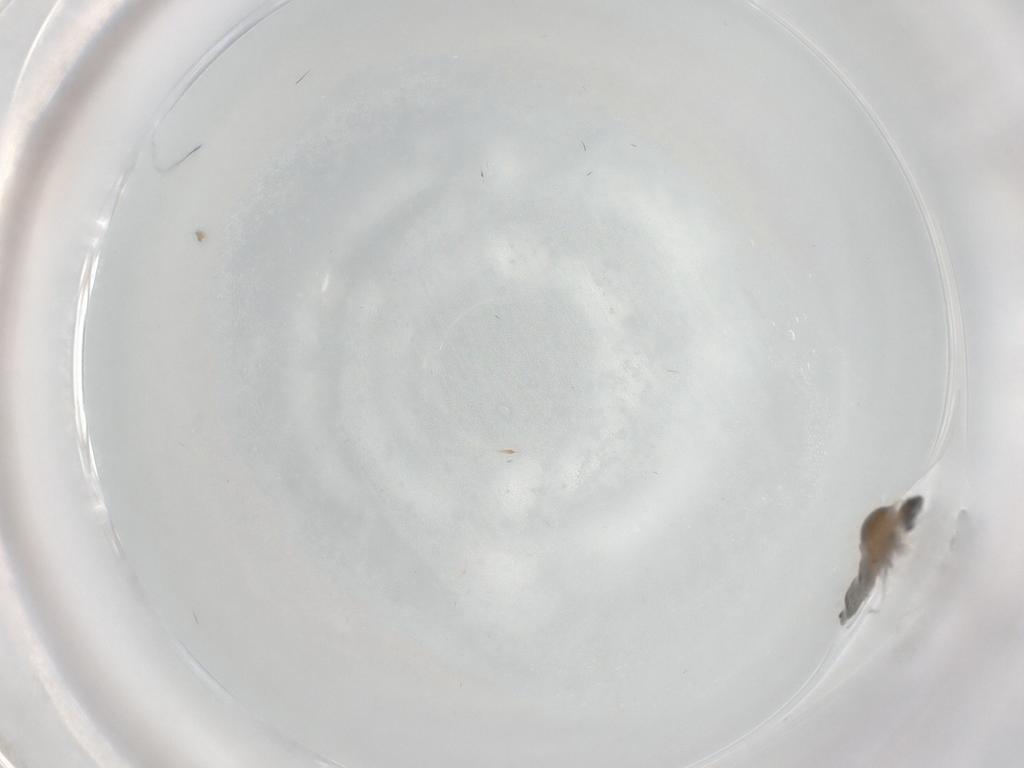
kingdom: Animalia
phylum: Arthropoda
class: Insecta
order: Diptera
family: Cecidomyiidae
